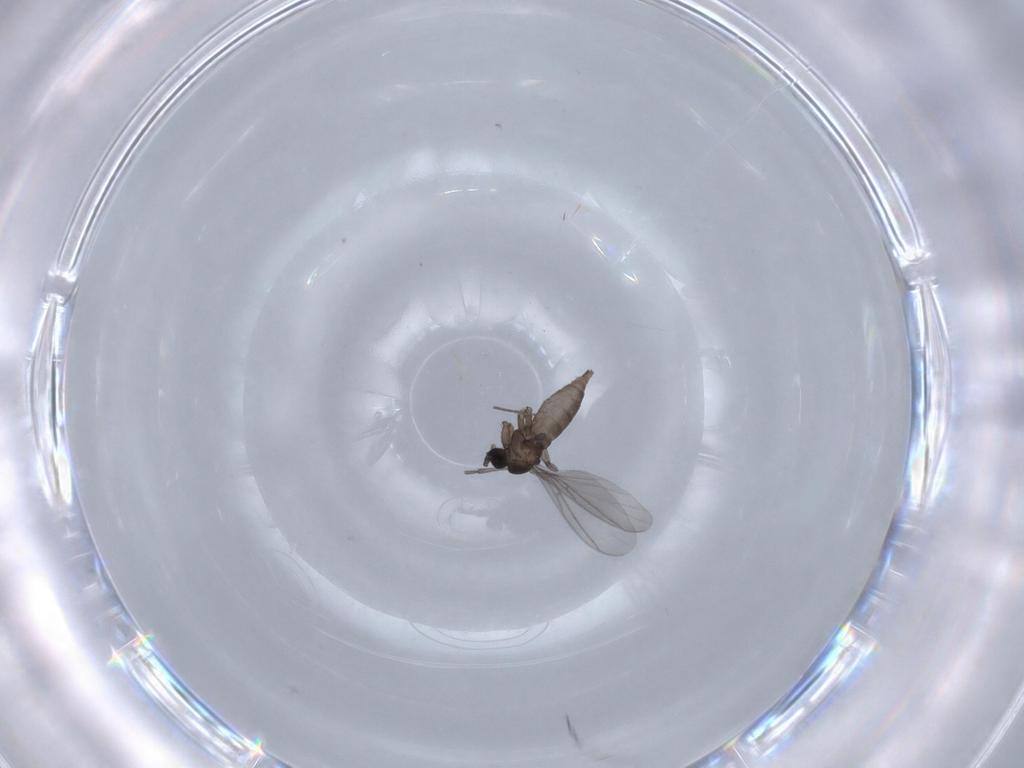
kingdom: Animalia
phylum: Arthropoda
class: Insecta
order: Diptera
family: Sciaridae
